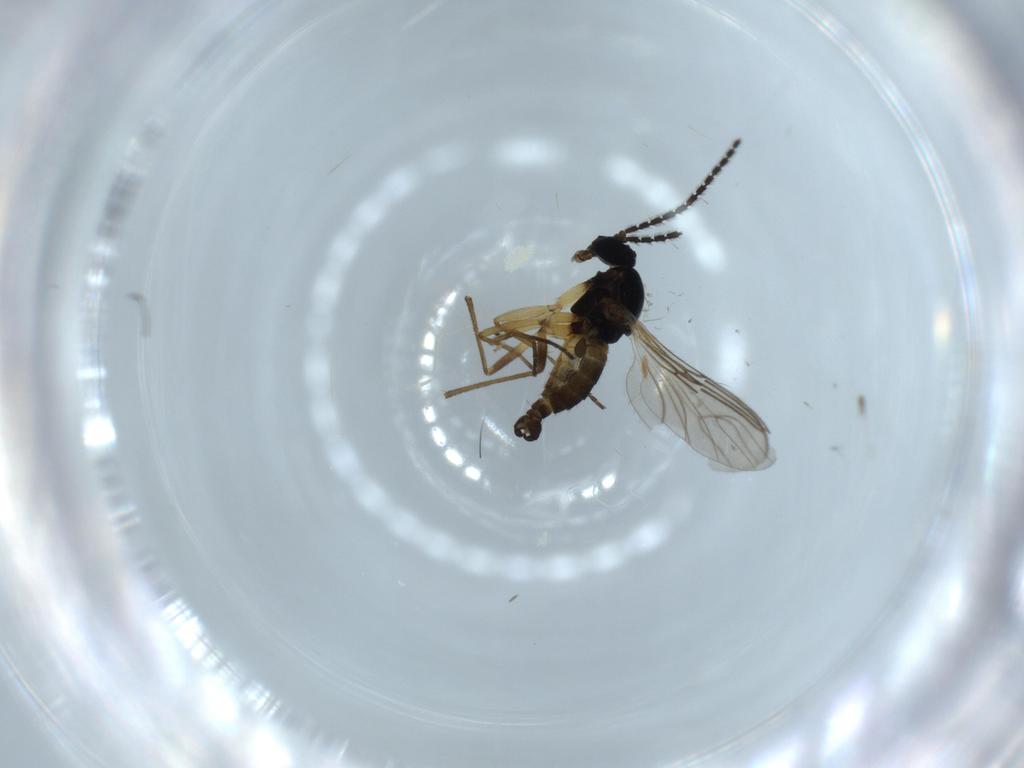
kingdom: Animalia
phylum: Arthropoda
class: Insecta
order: Diptera
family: Sciaridae
